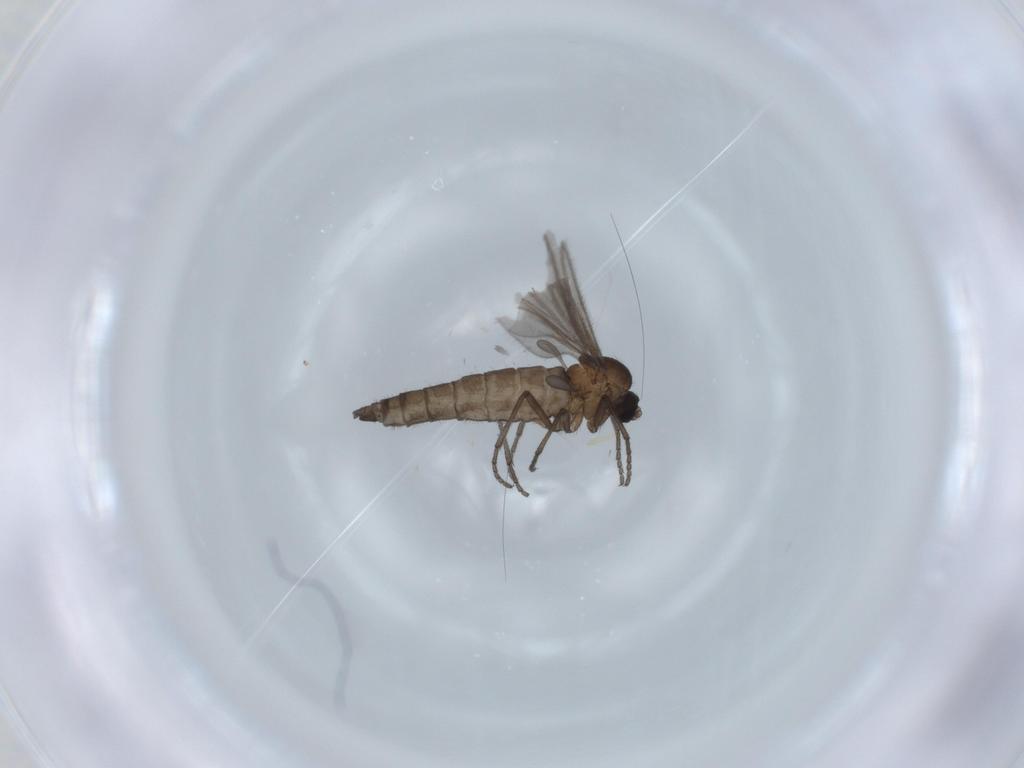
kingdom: Animalia
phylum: Arthropoda
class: Insecta
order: Diptera
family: Sciaridae
